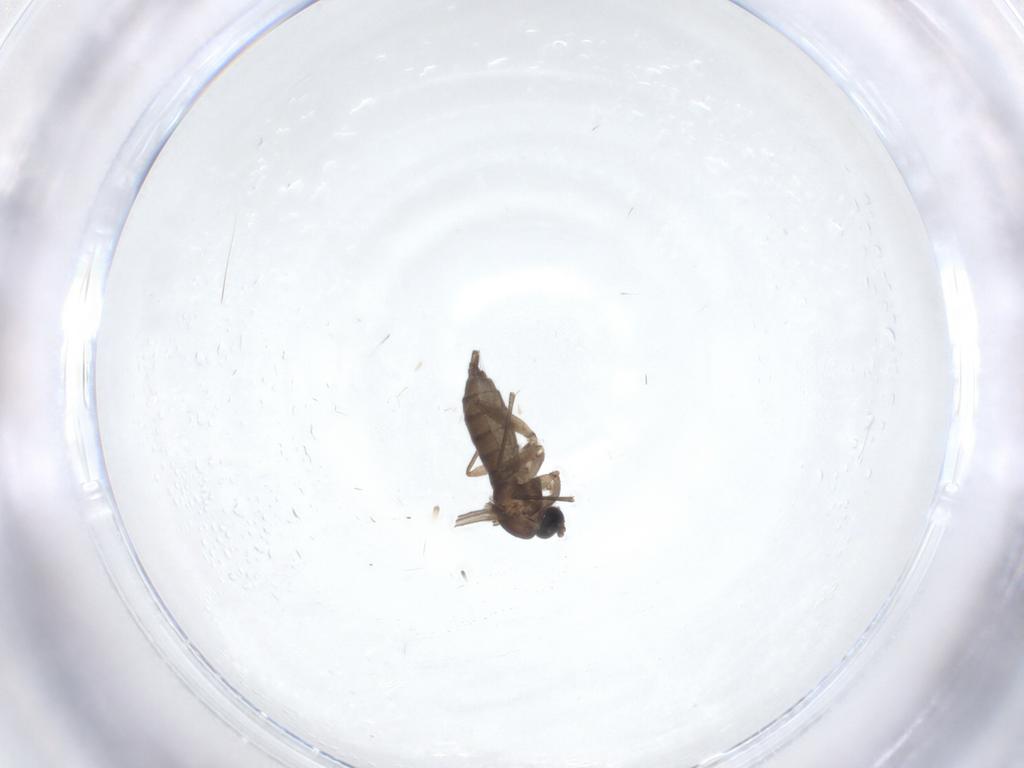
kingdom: Animalia
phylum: Arthropoda
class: Insecta
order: Diptera
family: Sciaridae
